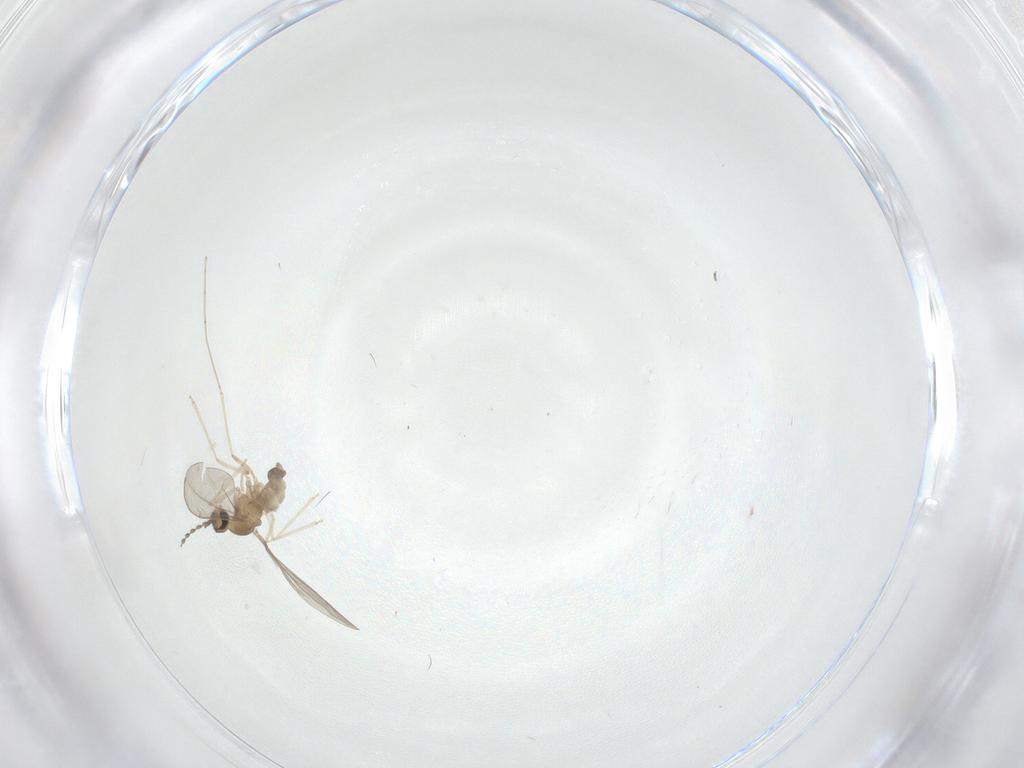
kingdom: Animalia
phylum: Arthropoda
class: Insecta
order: Diptera
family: Cecidomyiidae
